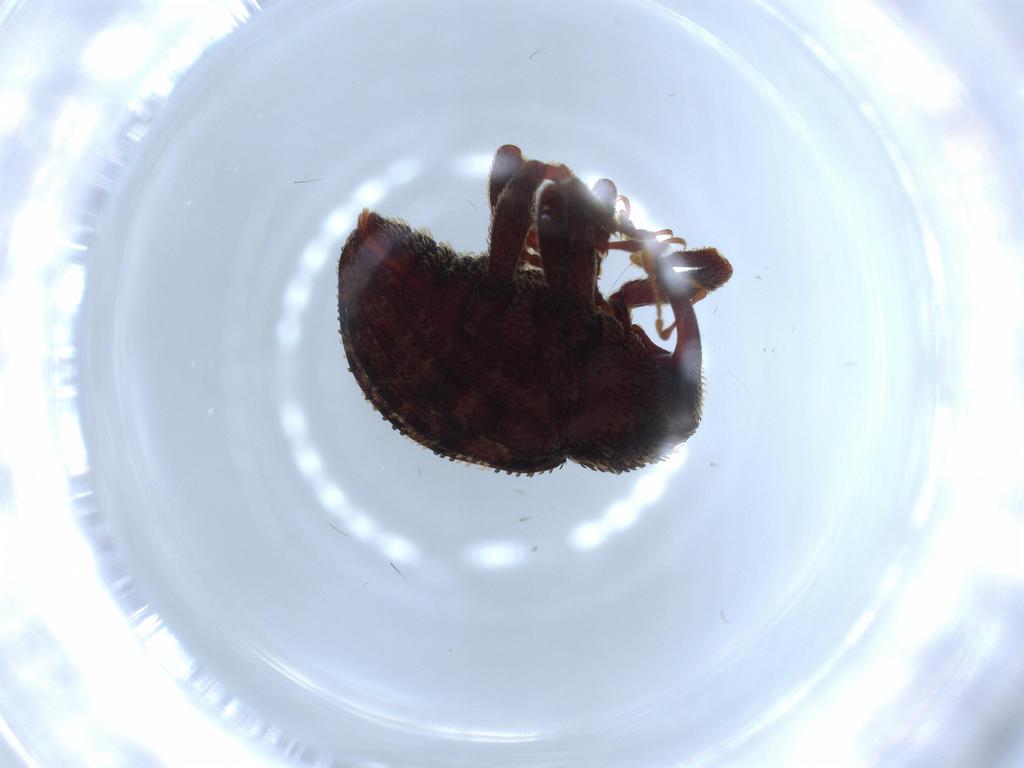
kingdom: Animalia
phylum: Arthropoda
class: Insecta
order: Coleoptera
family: Curculionidae
